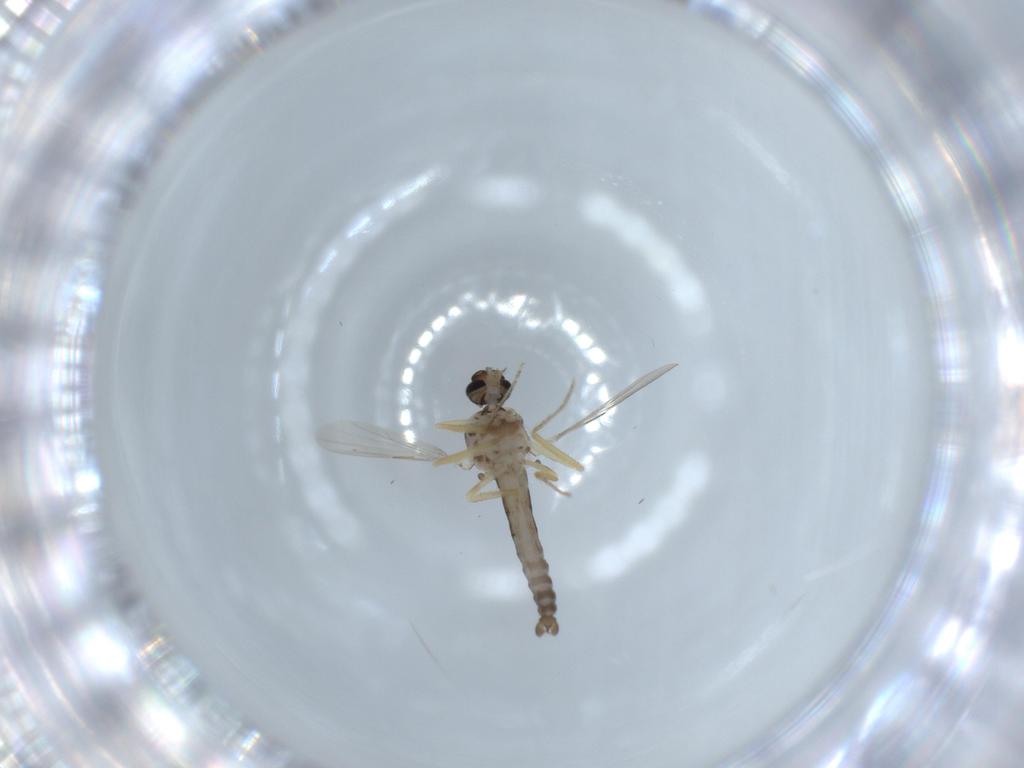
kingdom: Animalia
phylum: Arthropoda
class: Insecta
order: Diptera
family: Ceratopogonidae
